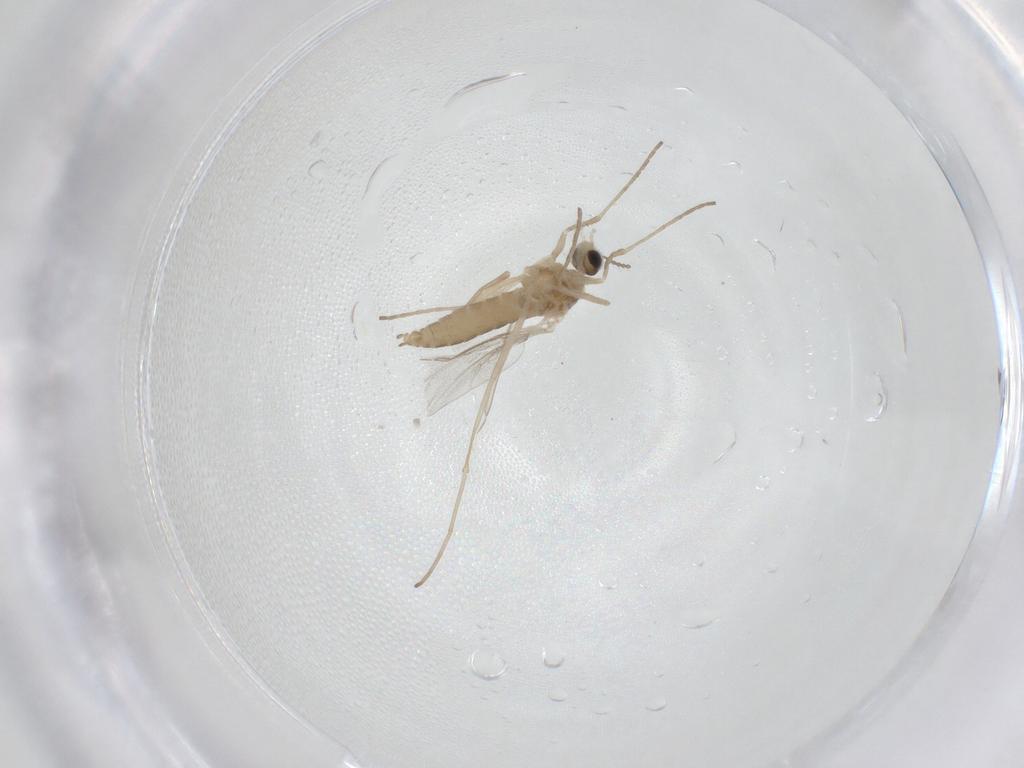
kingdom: Animalia
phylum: Arthropoda
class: Insecta
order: Diptera
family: Cecidomyiidae
